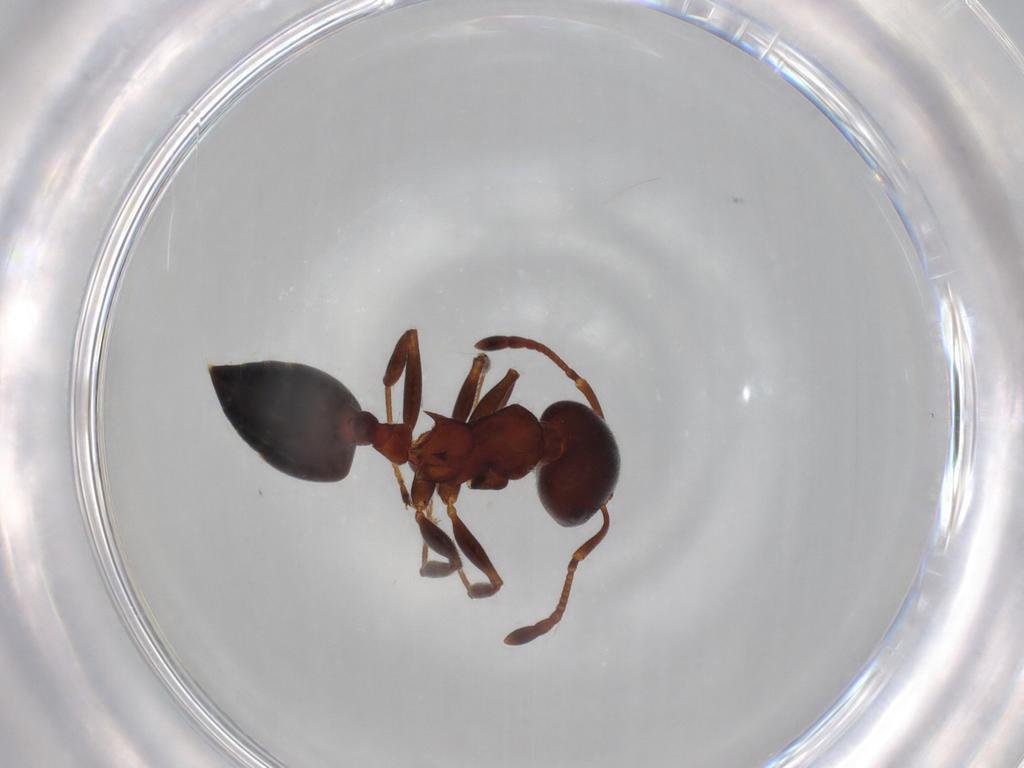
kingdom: Animalia
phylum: Arthropoda
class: Insecta
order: Hymenoptera
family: Formicidae
